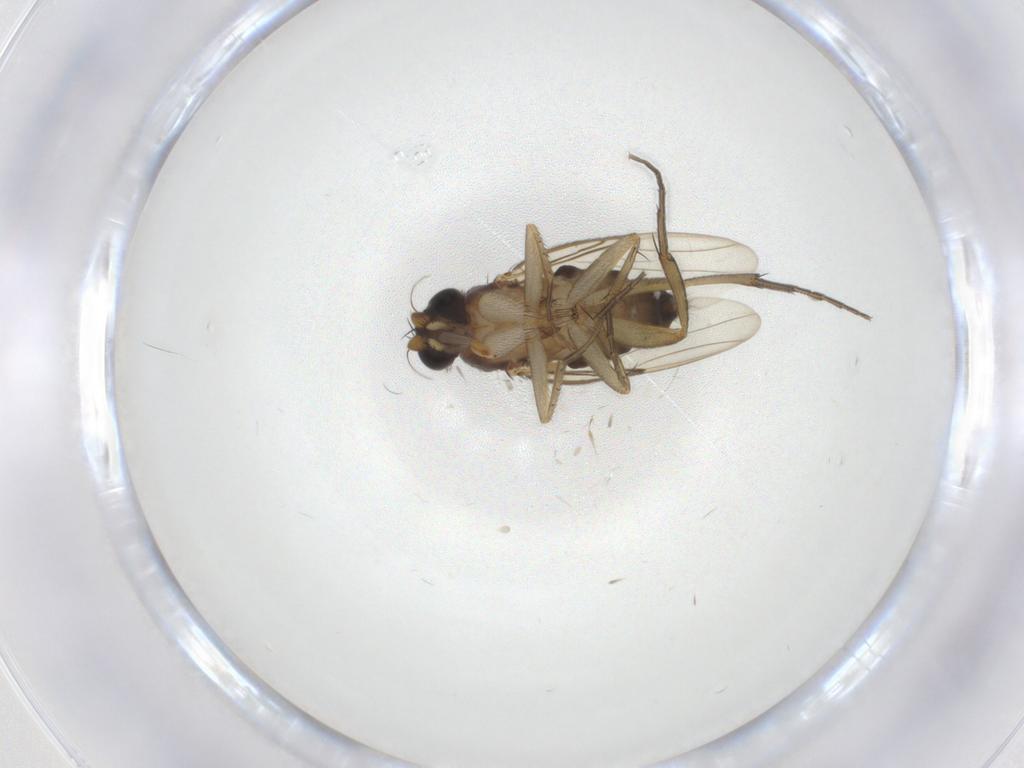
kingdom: Animalia
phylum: Arthropoda
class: Insecta
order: Diptera
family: Phoridae
